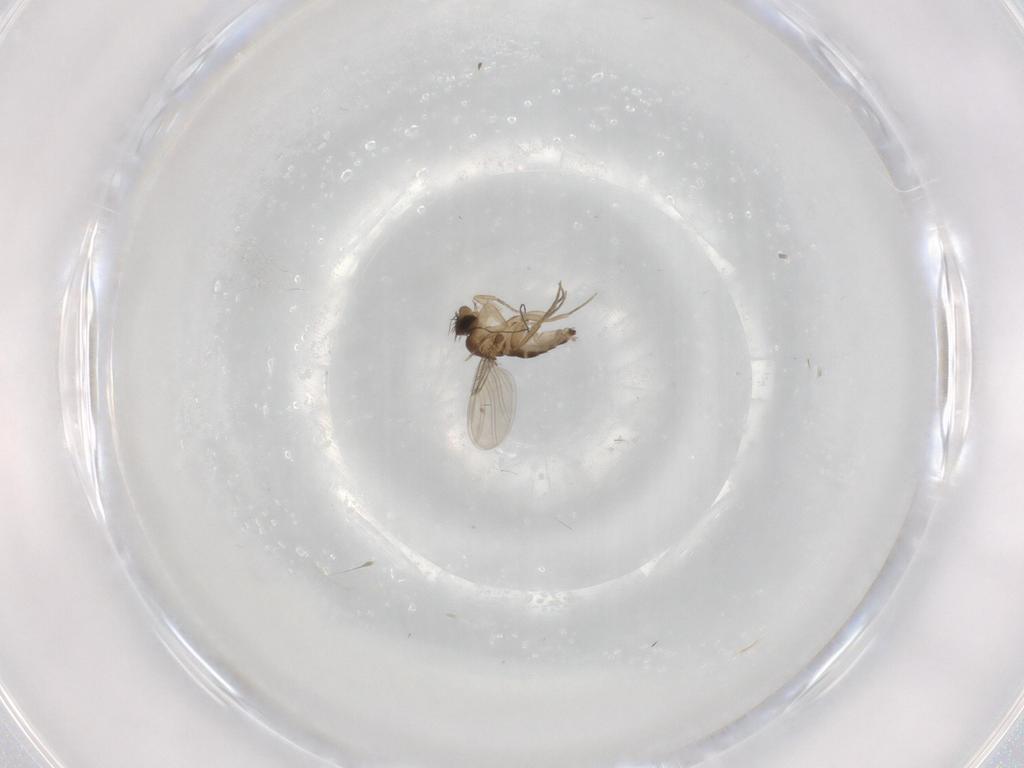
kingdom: Animalia
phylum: Arthropoda
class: Insecta
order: Diptera
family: Phoridae
